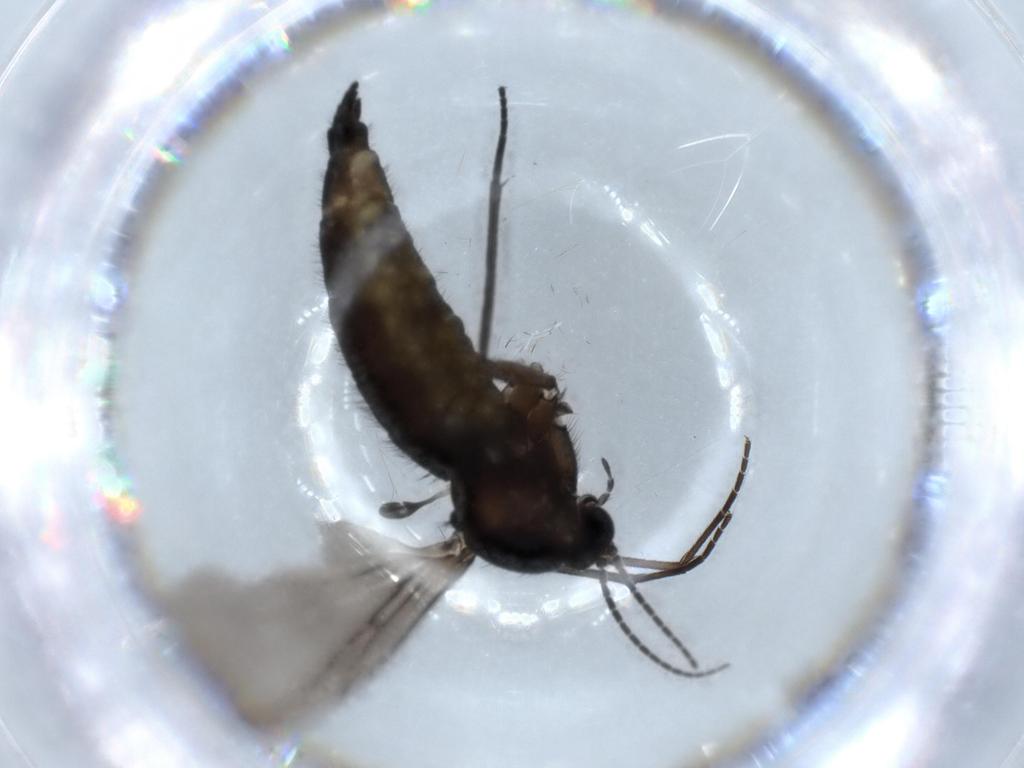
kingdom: Animalia
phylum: Arthropoda
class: Insecta
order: Diptera
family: Sciaridae
